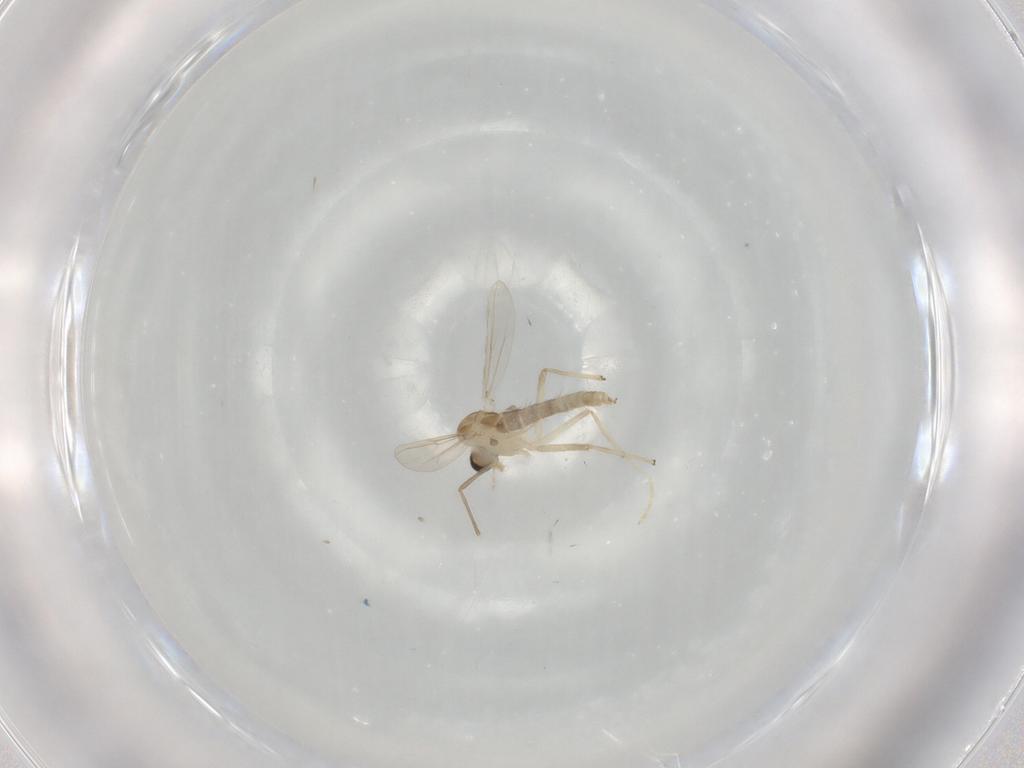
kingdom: Animalia
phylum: Arthropoda
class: Insecta
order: Diptera
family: Chironomidae
